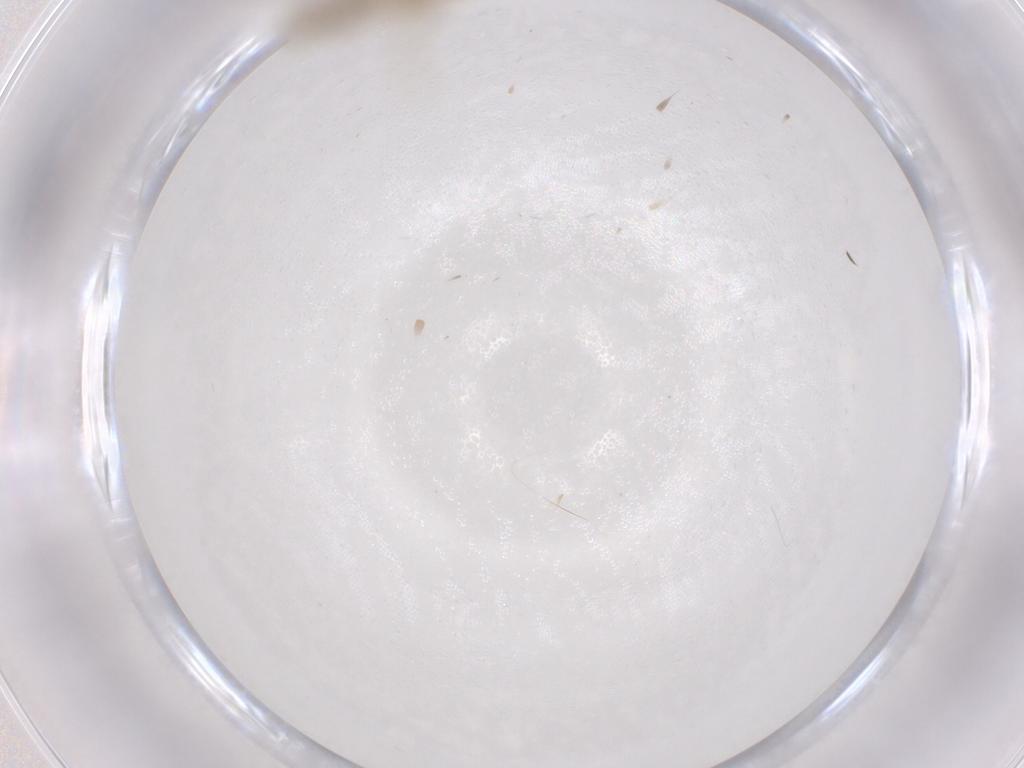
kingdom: Animalia
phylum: Arthropoda
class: Insecta
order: Diptera
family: Chironomidae
